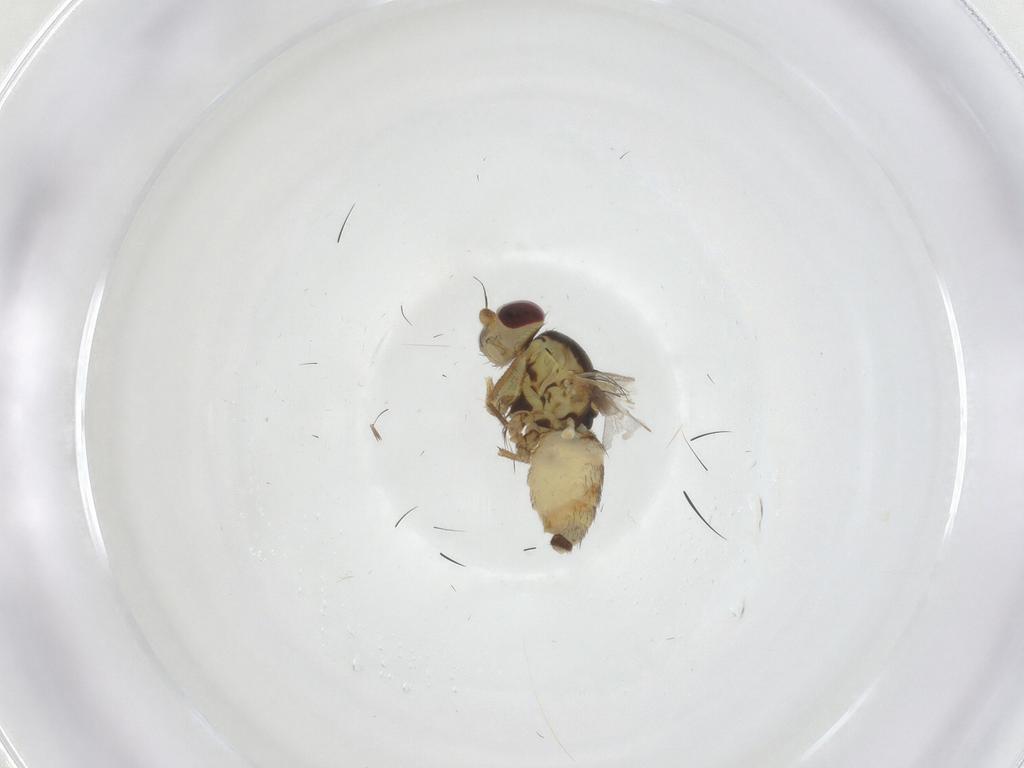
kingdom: Animalia
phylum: Arthropoda
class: Insecta
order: Diptera
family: Agromyzidae
